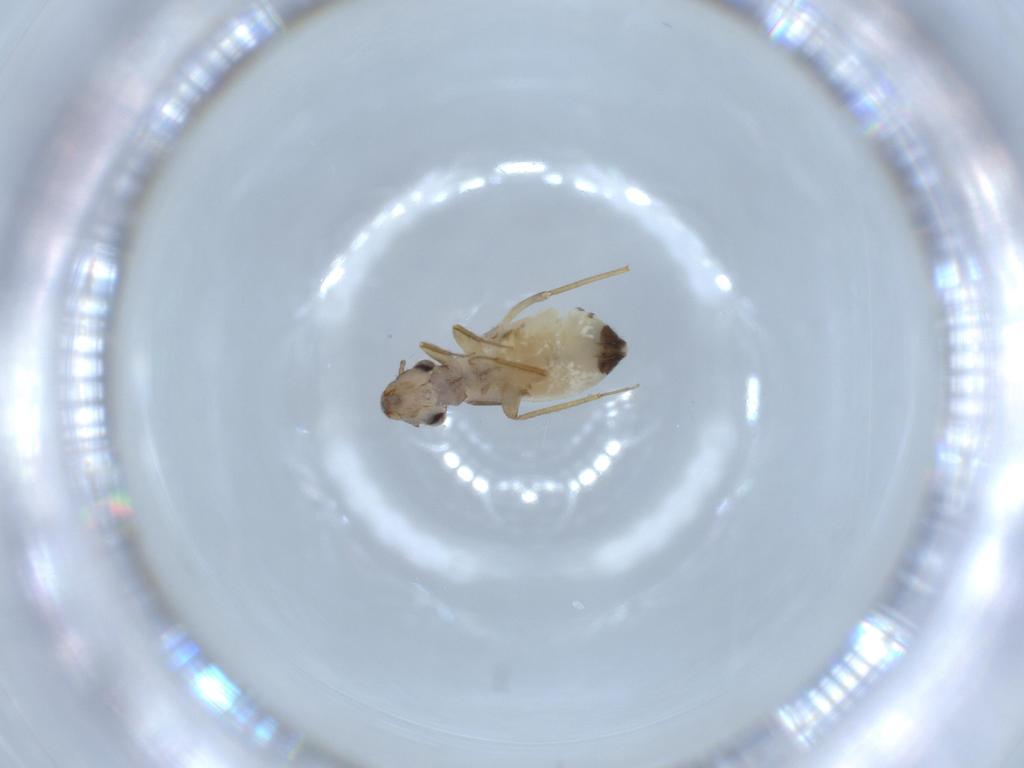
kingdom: Animalia
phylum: Arthropoda
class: Insecta
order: Psocodea
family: Lepidopsocidae
